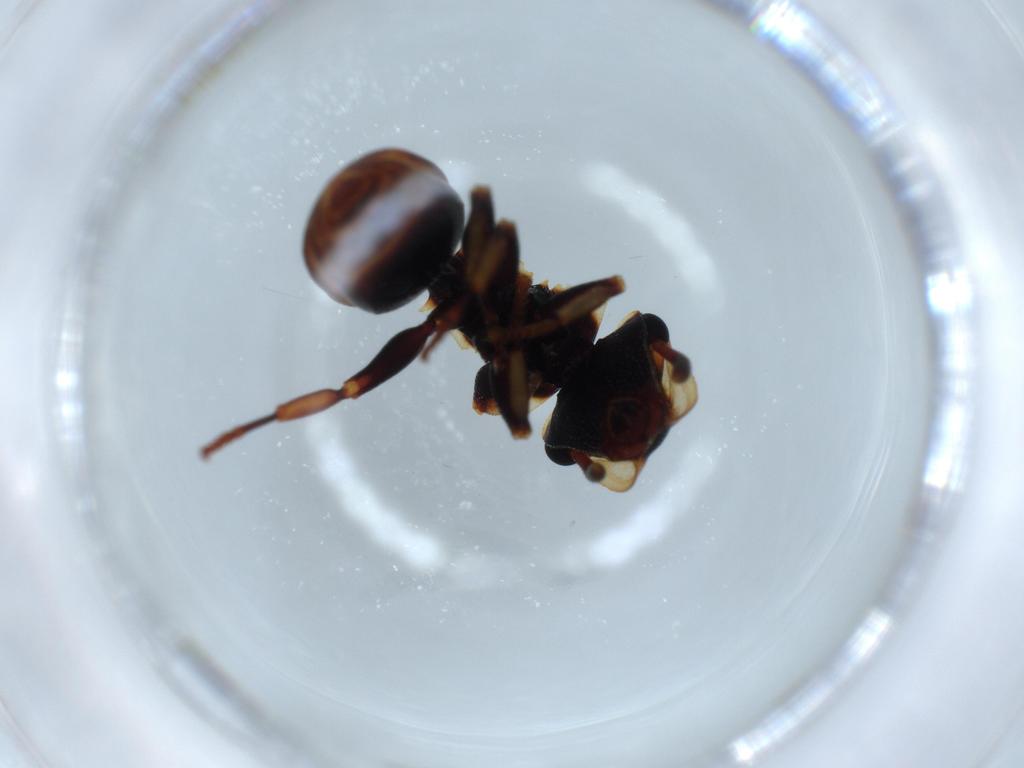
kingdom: Animalia
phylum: Arthropoda
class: Insecta
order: Hymenoptera
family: Formicidae
